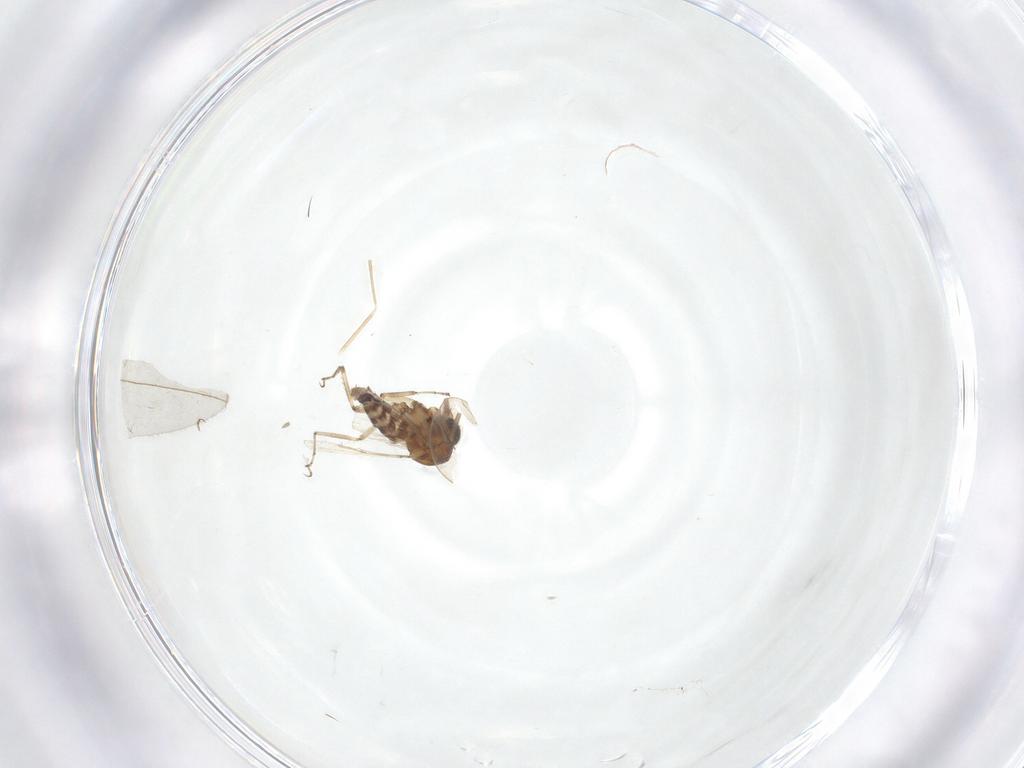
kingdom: Animalia
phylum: Arthropoda
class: Insecta
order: Diptera
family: Ceratopogonidae
